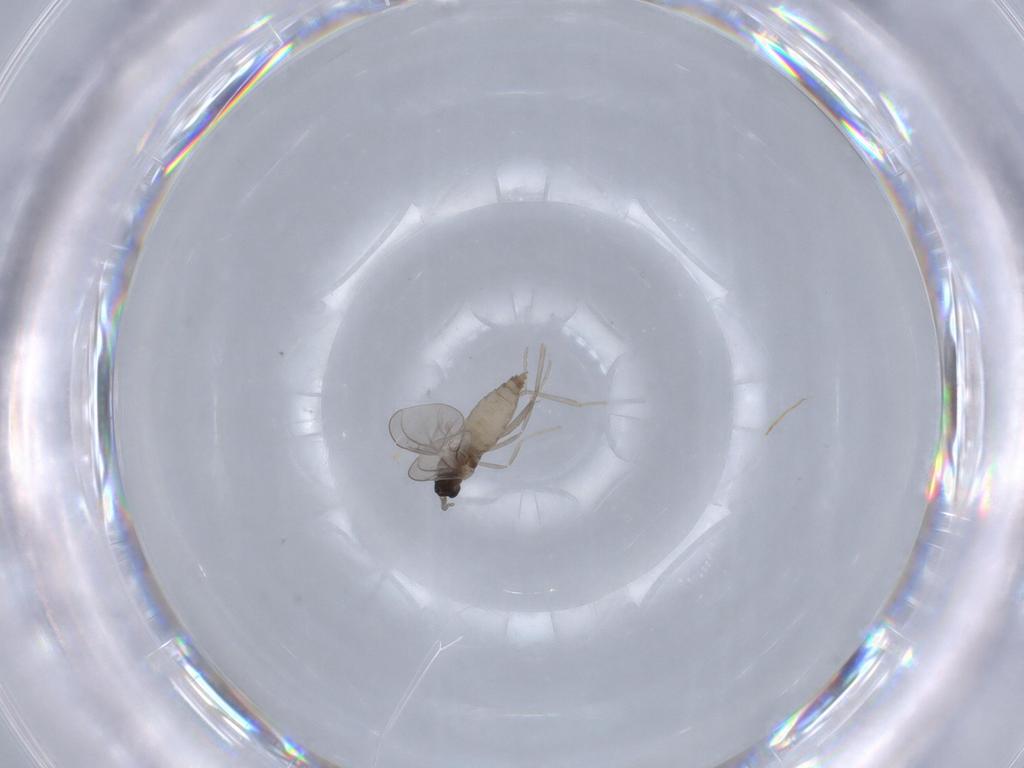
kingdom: Animalia
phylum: Arthropoda
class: Insecta
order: Diptera
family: Cecidomyiidae
